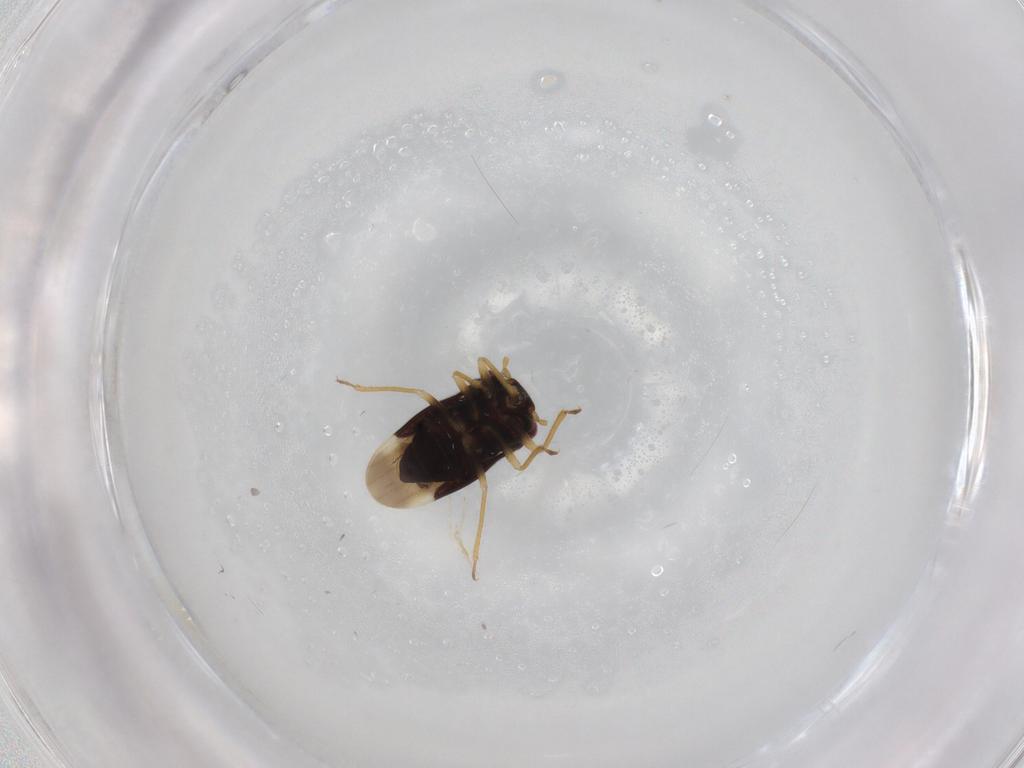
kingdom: Animalia
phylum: Arthropoda
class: Insecta
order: Hemiptera
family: Schizopteridae
